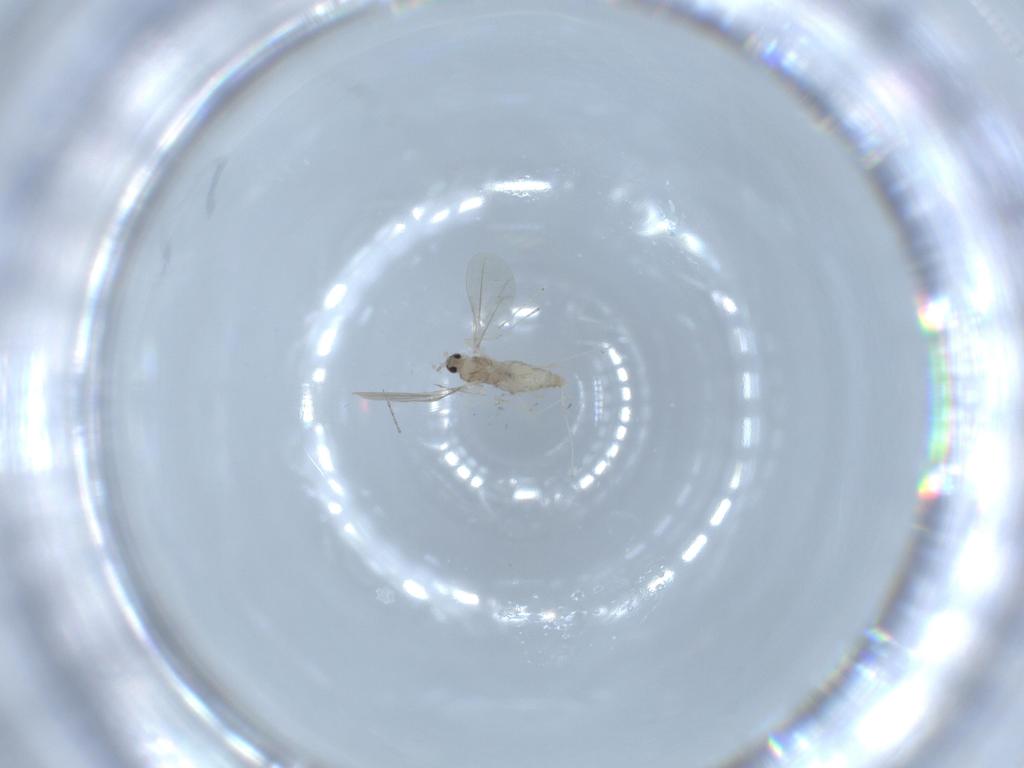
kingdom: Animalia
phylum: Arthropoda
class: Insecta
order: Diptera
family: Cecidomyiidae
